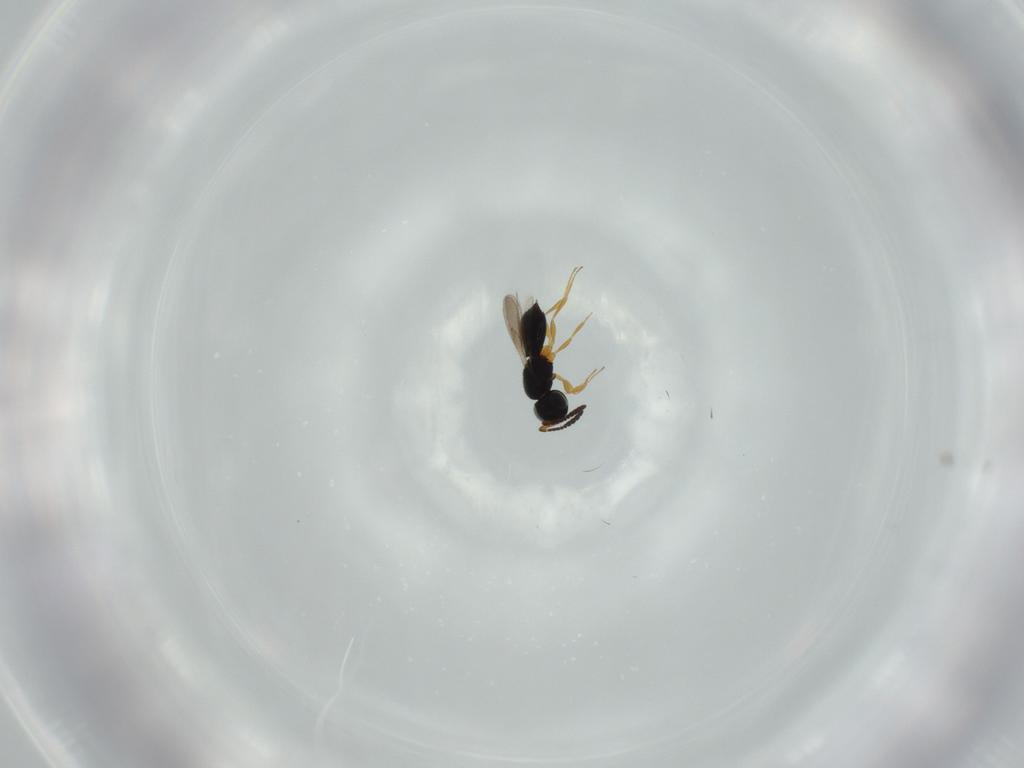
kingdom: Animalia
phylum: Arthropoda
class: Insecta
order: Hymenoptera
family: Scelionidae
